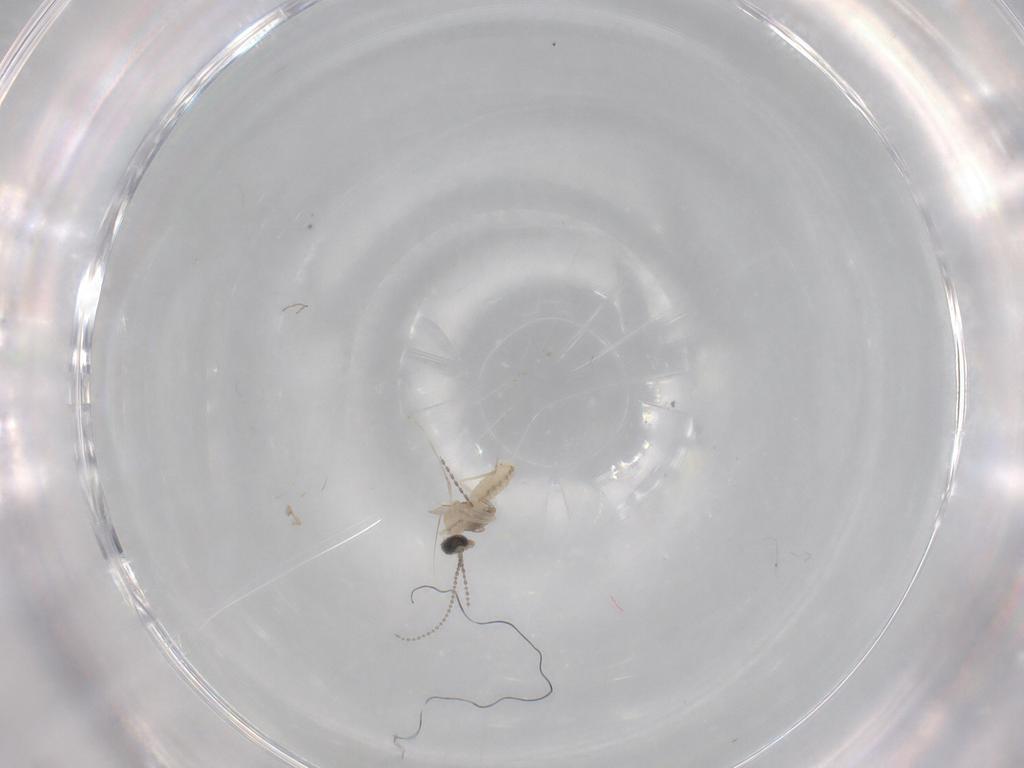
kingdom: Animalia
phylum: Arthropoda
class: Insecta
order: Diptera
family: Cecidomyiidae
